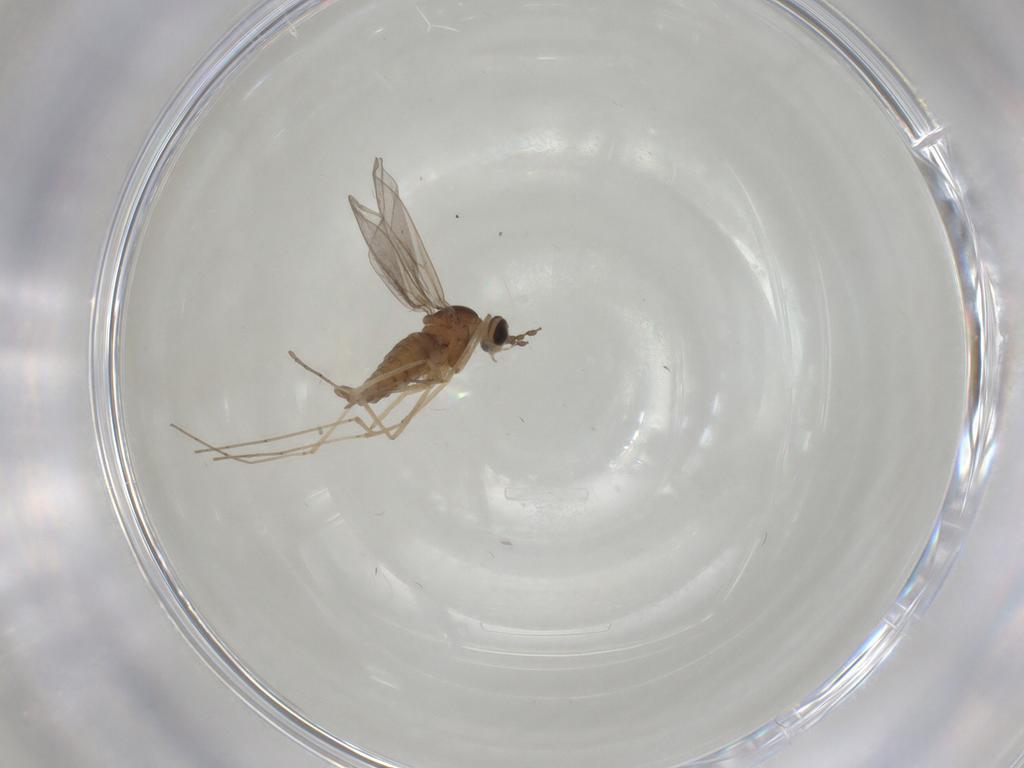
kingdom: Animalia
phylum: Arthropoda
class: Insecta
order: Diptera
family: Cecidomyiidae
